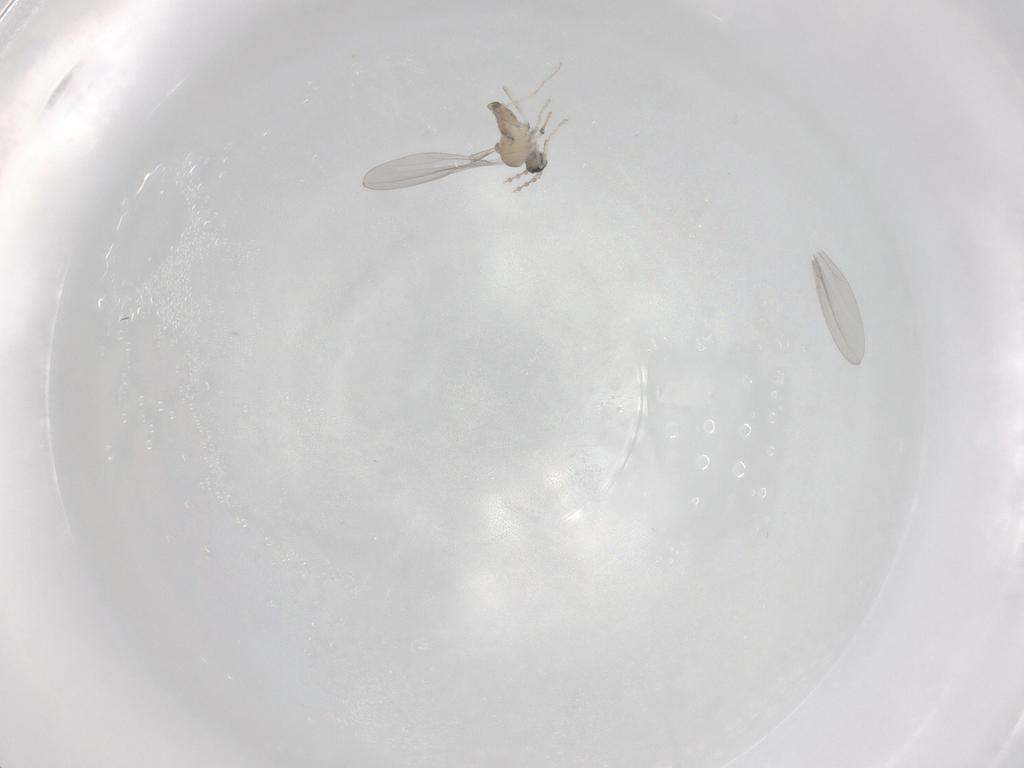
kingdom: Animalia
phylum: Arthropoda
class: Insecta
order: Diptera
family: Cecidomyiidae
